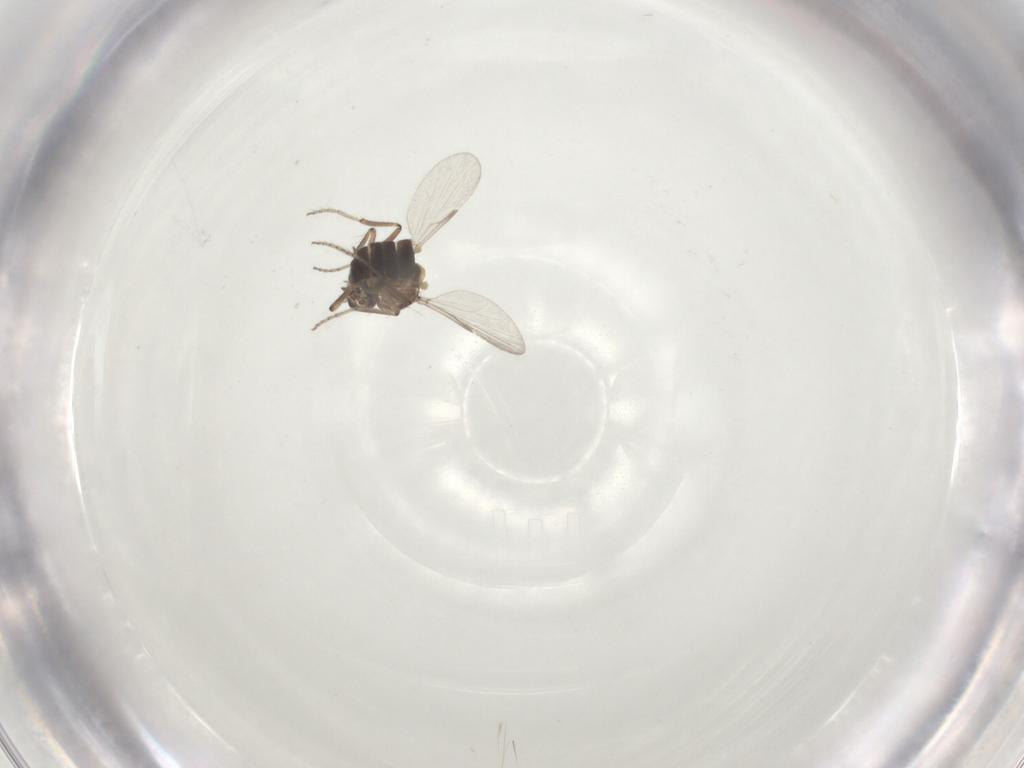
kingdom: Animalia
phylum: Arthropoda
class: Insecta
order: Diptera
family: Ceratopogonidae
